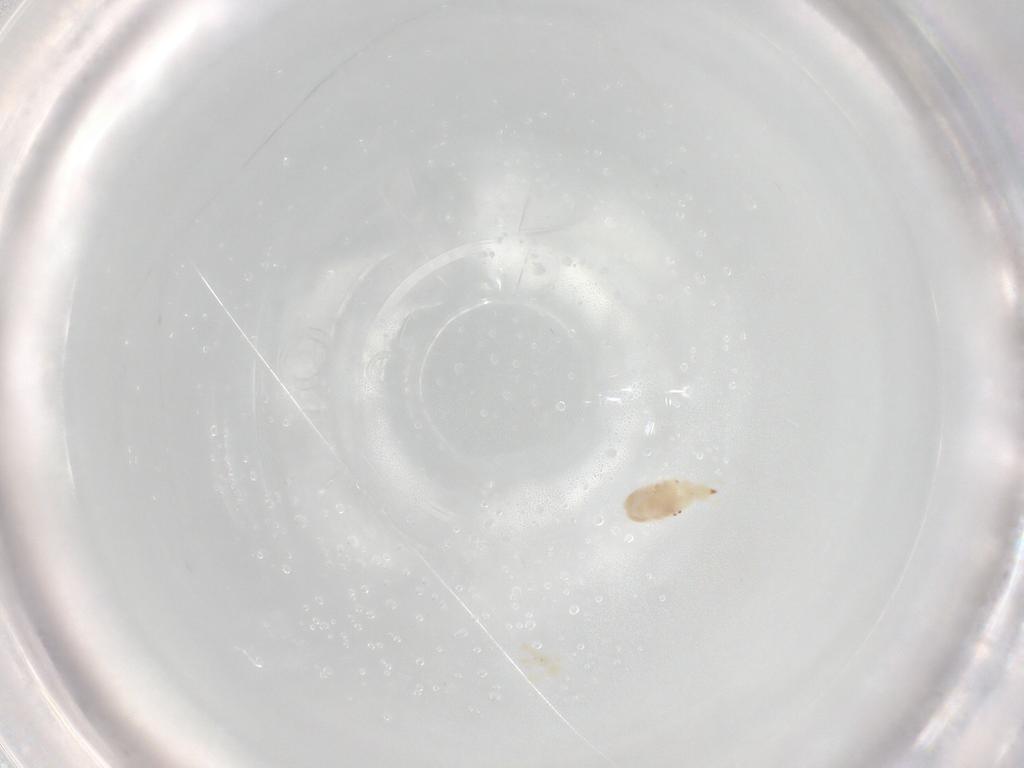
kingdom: Animalia
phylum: Arthropoda
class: Arachnida
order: Trombidiformes
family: Bdellidae
